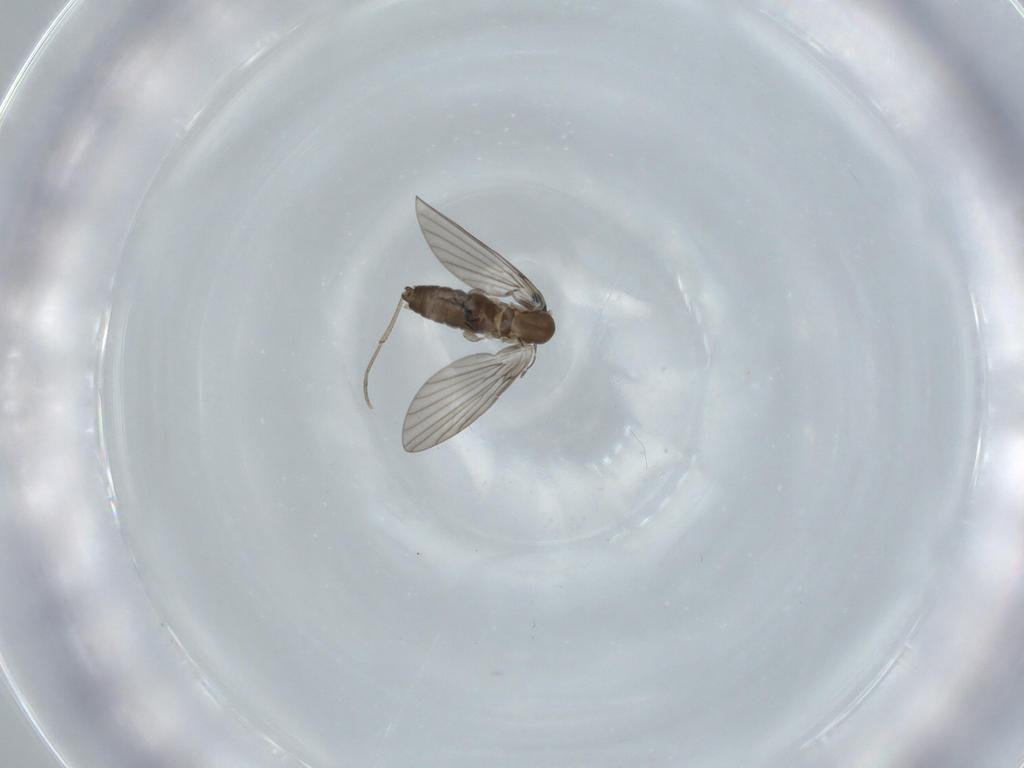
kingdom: Animalia
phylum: Arthropoda
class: Insecta
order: Diptera
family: Psychodidae
